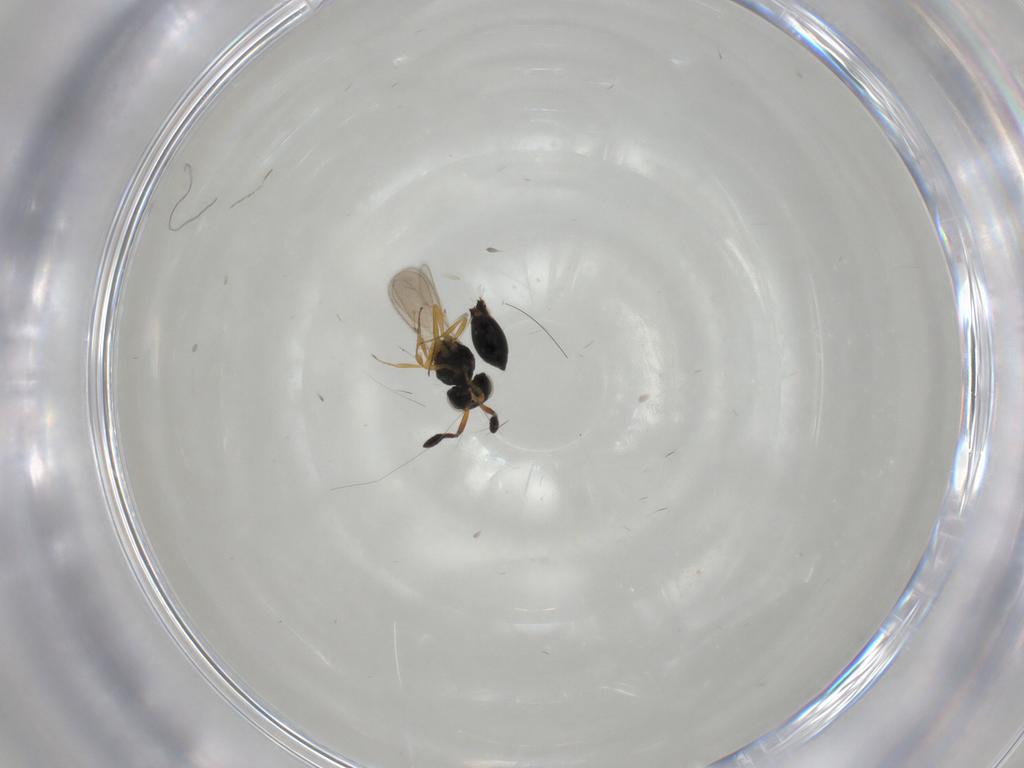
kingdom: Animalia
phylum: Arthropoda
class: Insecta
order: Hymenoptera
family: Scelionidae
